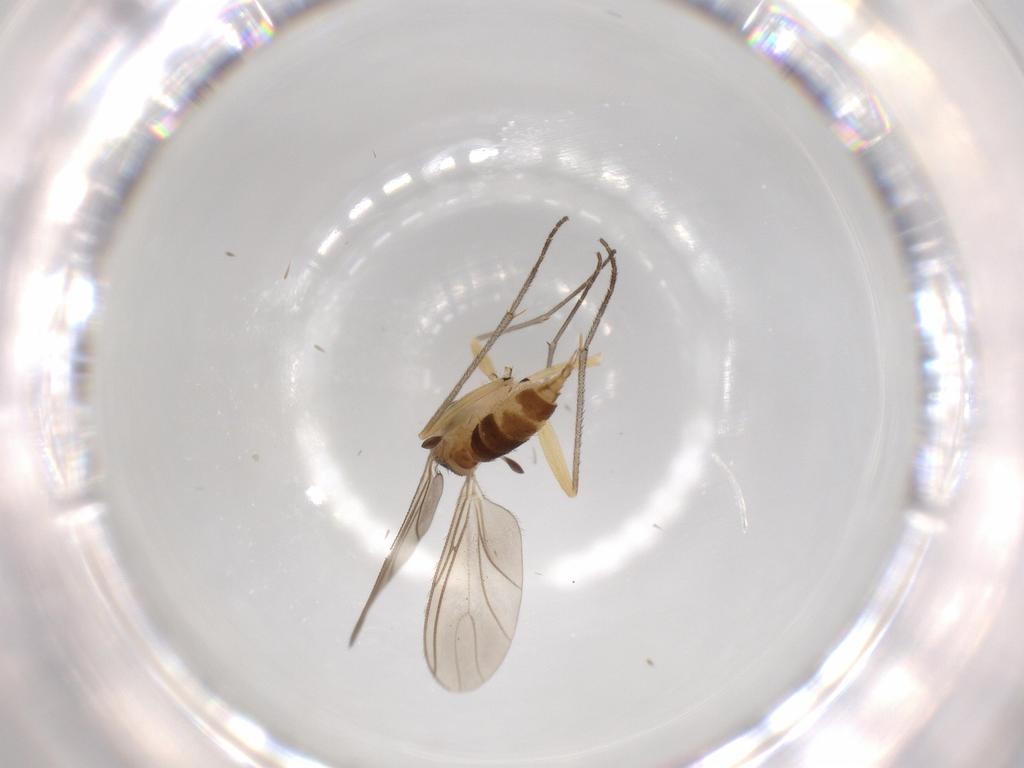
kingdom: Animalia
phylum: Arthropoda
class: Insecta
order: Diptera
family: Sciaridae
